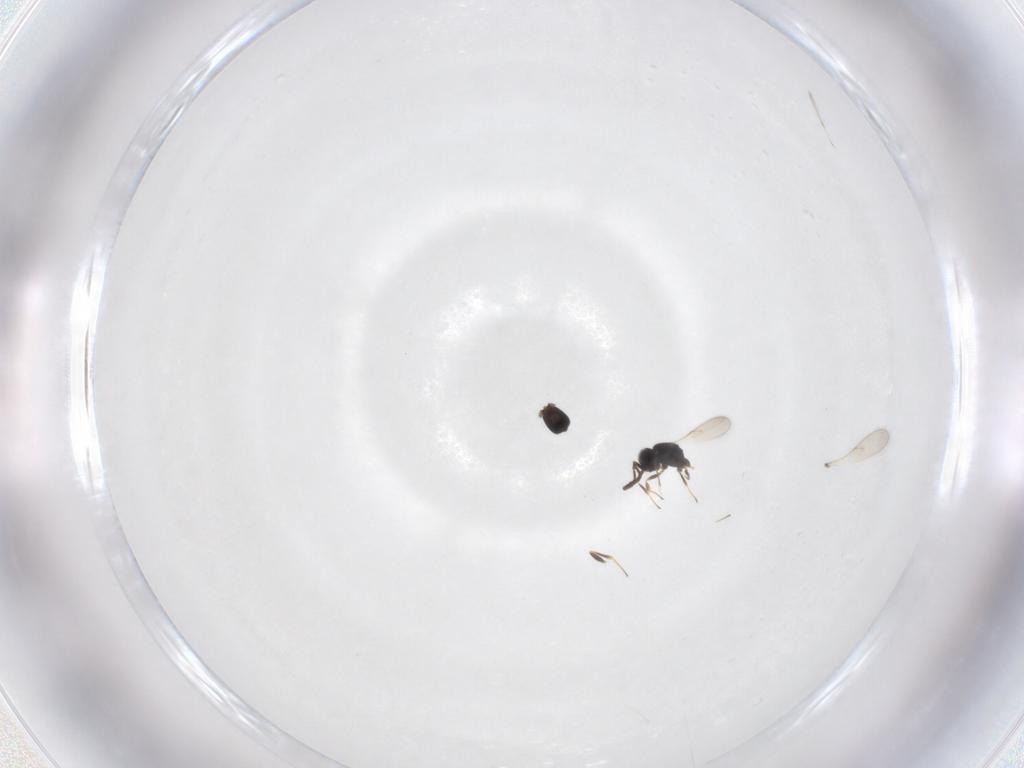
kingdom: Animalia
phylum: Arthropoda
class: Insecta
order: Hymenoptera
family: Scelionidae
